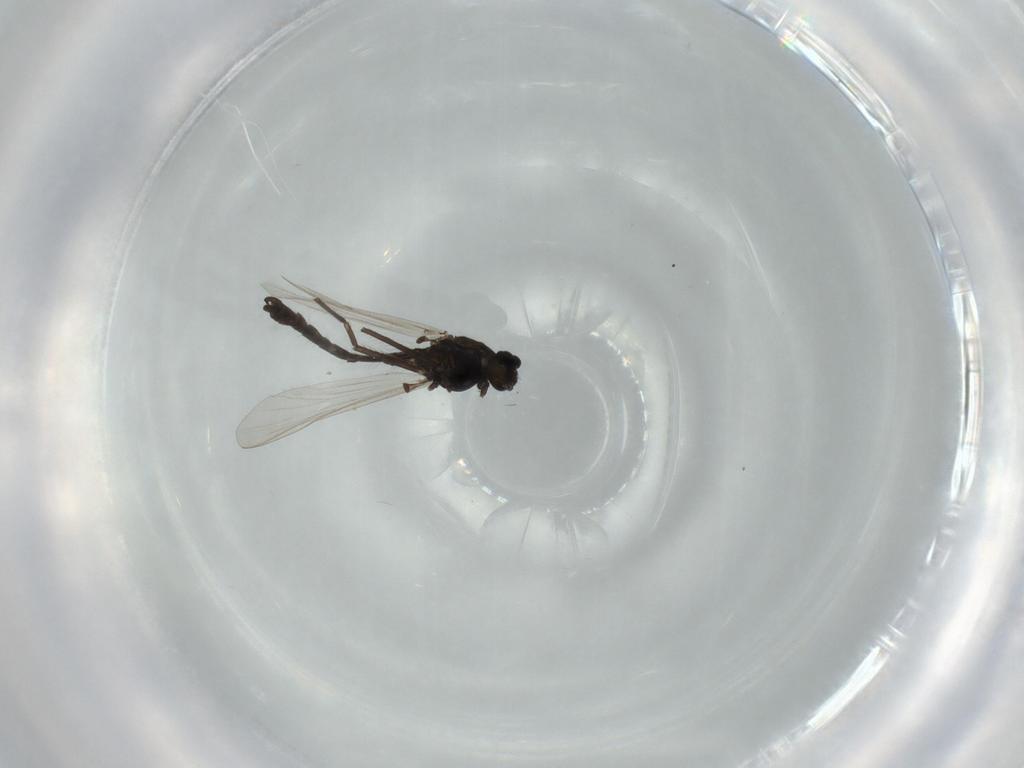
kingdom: Animalia
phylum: Arthropoda
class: Insecta
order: Diptera
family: Chironomidae
